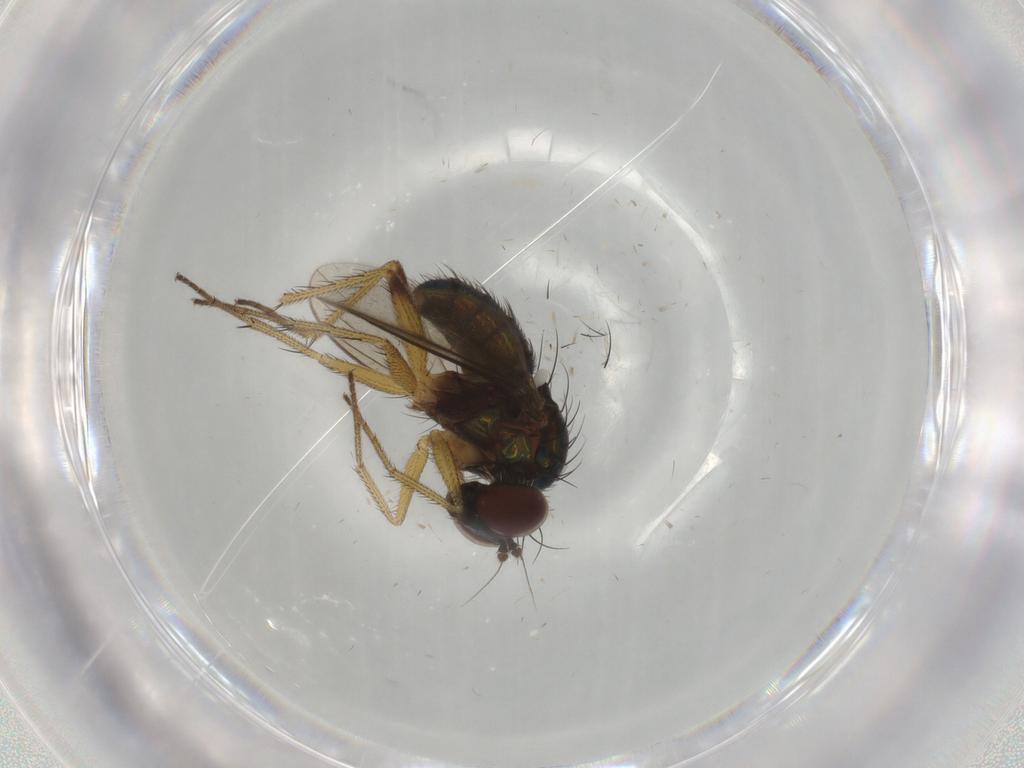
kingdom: Animalia
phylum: Arthropoda
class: Insecta
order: Diptera
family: Dolichopodidae
